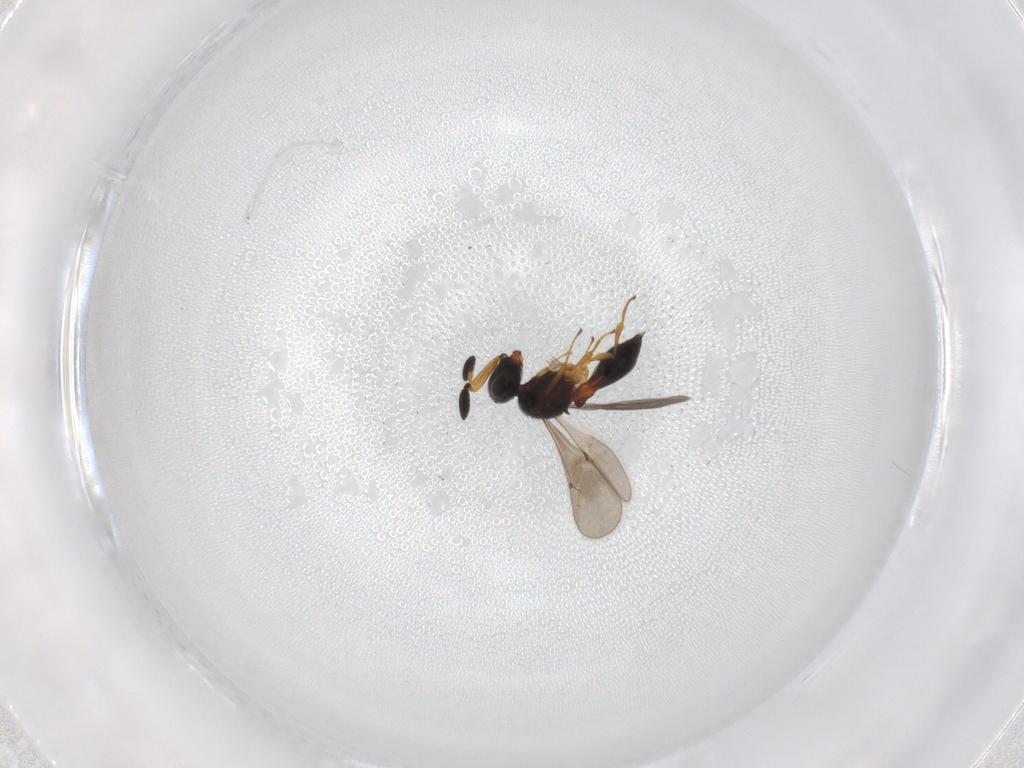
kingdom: Animalia
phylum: Arthropoda
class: Insecta
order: Hymenoptera
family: Scelionidae
